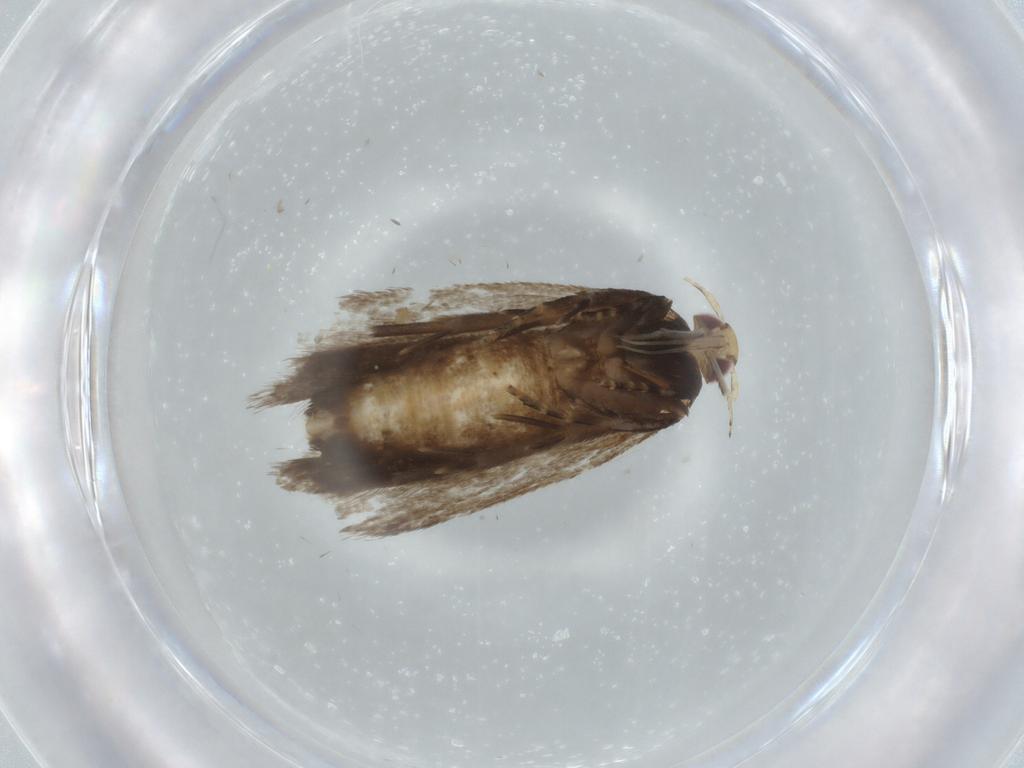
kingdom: Animalia
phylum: Arthropoda
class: Insecta
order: Lepidoptera
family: Gelechiidae
